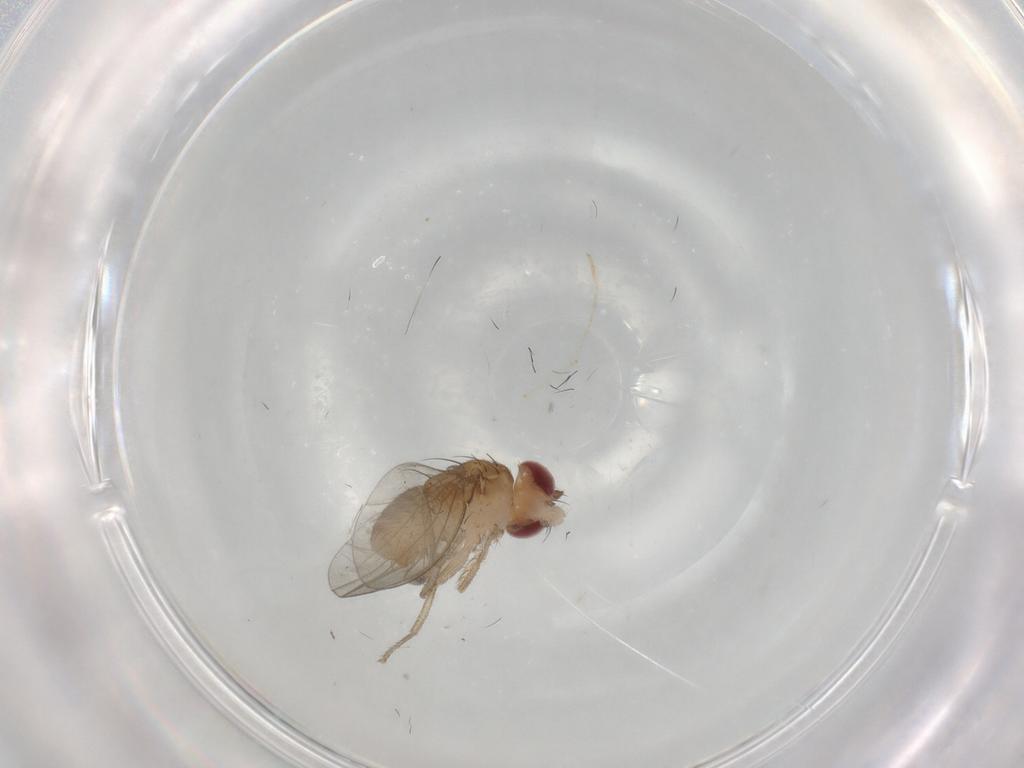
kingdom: Animalia
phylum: Arthropoda
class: Insecta
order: Diptera
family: Drosophilidae
